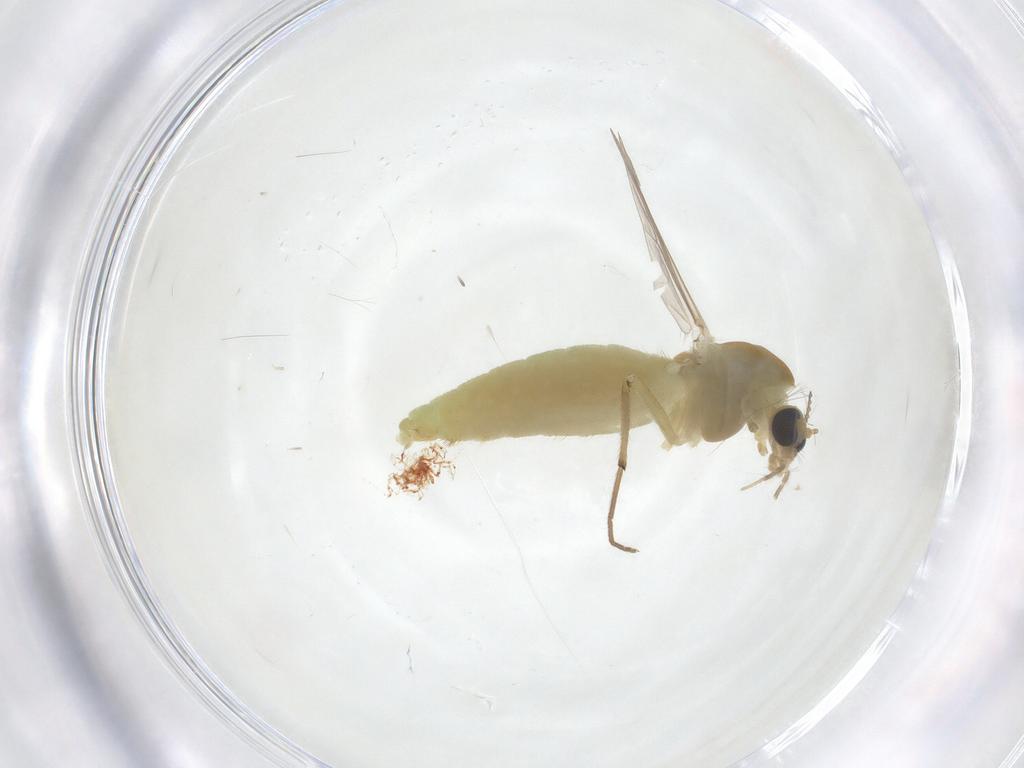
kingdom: Animalia
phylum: Arthropoda
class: Insecta
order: Diptera
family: Chironomidae
